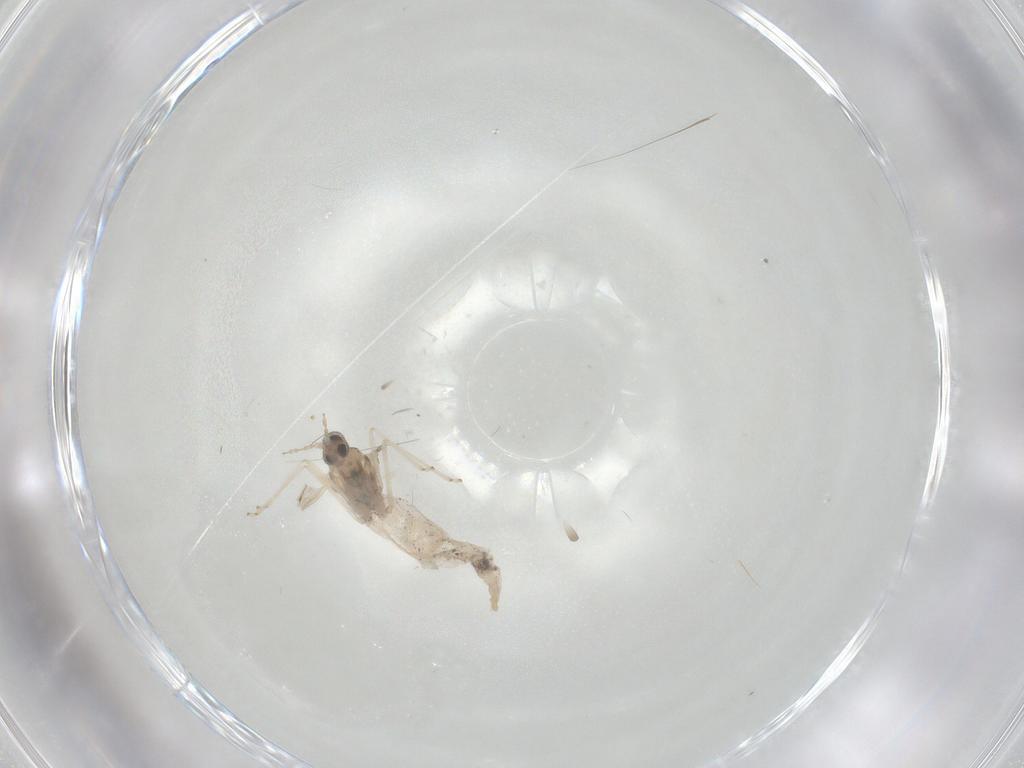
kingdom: Animalia
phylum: Arthropoda
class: Insecta
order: Diptera
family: Cecidomyiidae
